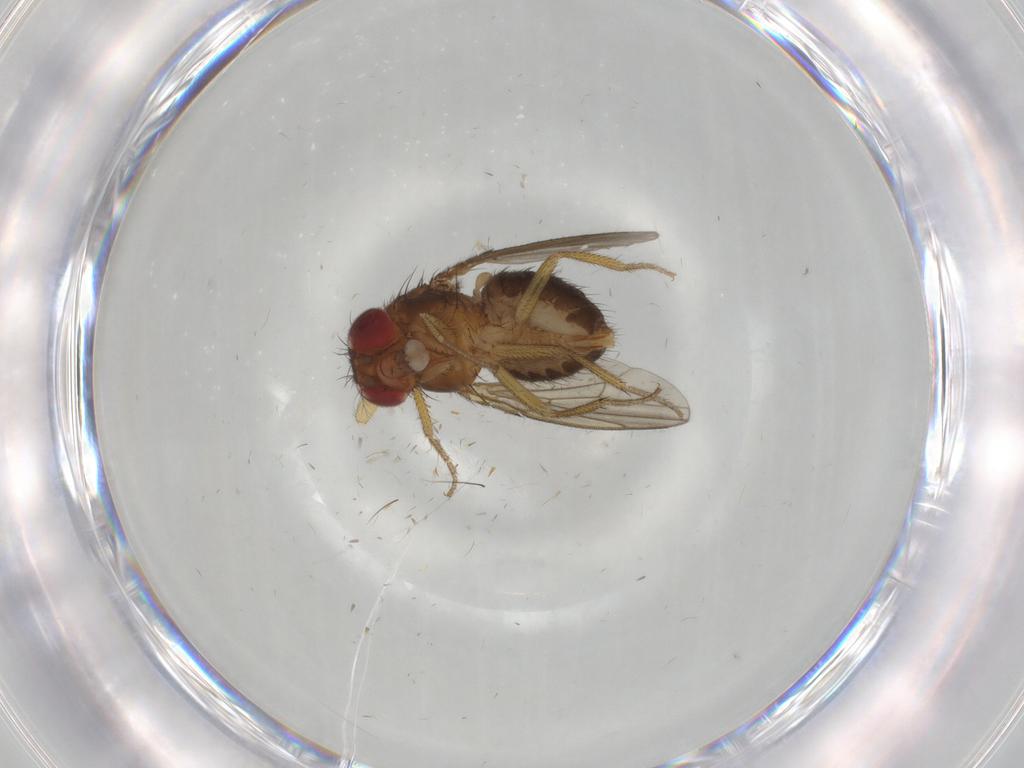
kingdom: Animalia
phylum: Arthropoda
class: Insecta
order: Diptera
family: Drosophilidae
